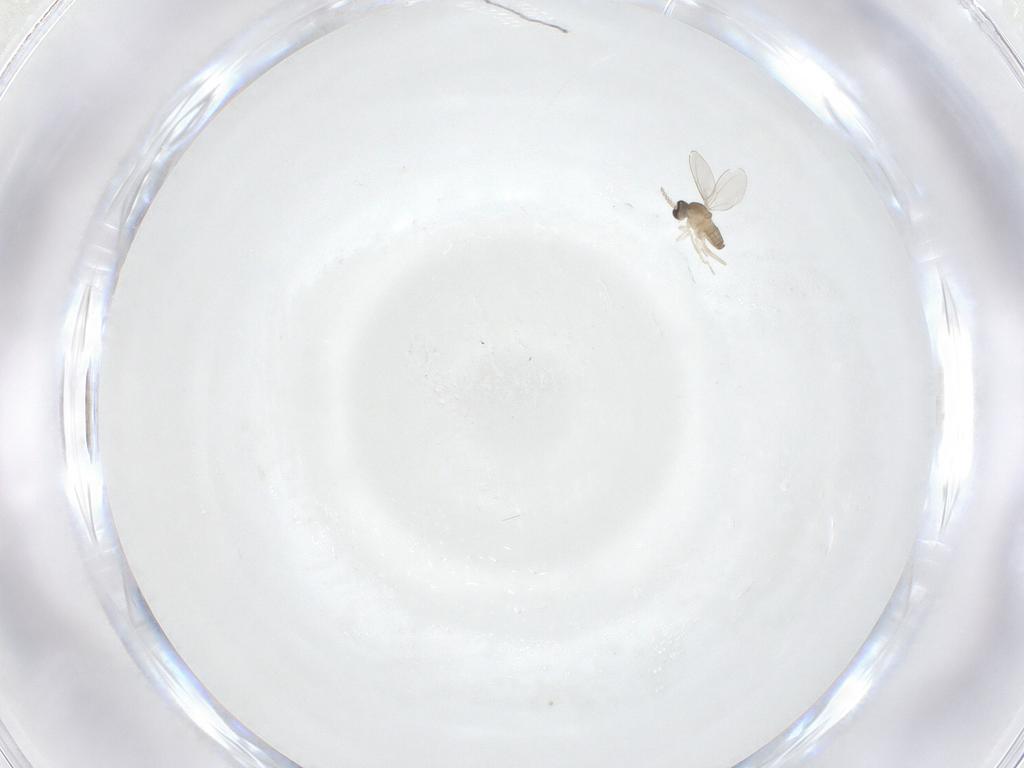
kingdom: Animalia
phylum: Arthropoda
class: Insecta
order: Diptera
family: Cecidomyiidae
